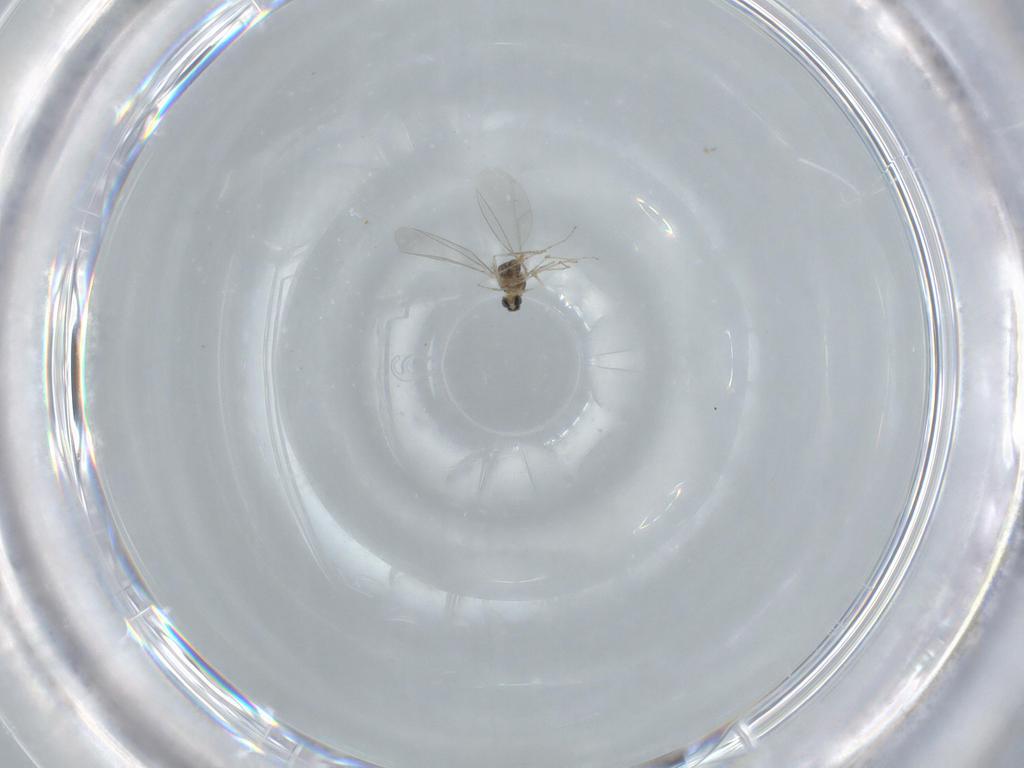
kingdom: Animalia
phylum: Arthropoda
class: Insecta
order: Diptera
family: Cecidomyiidae
